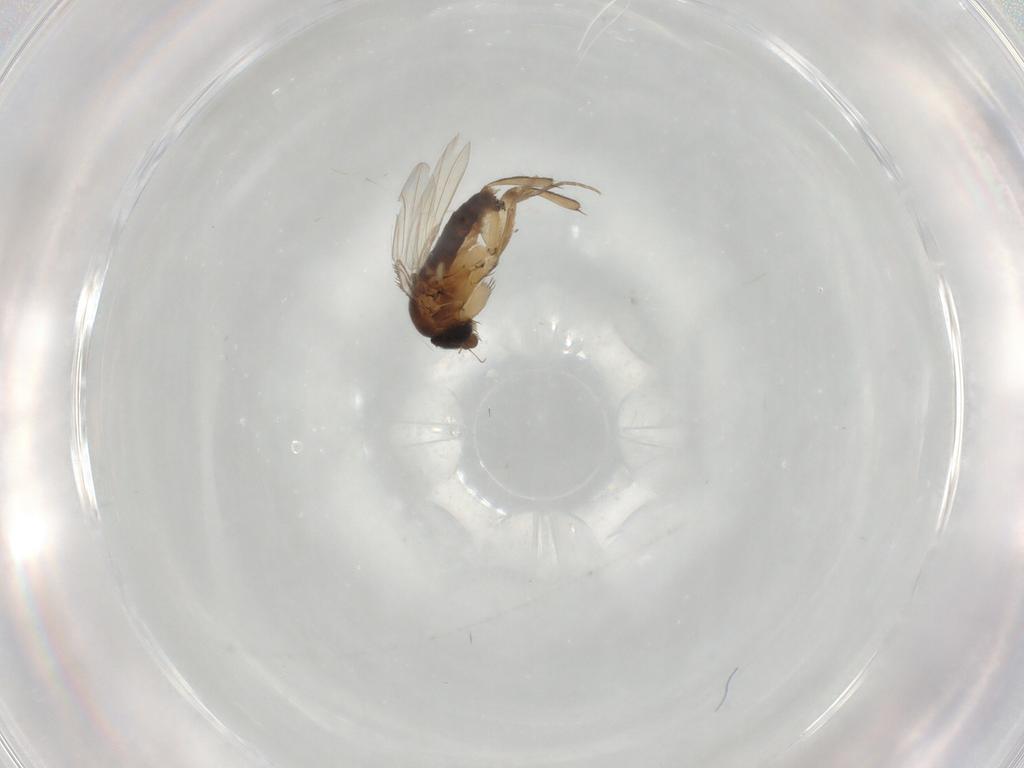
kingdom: Animalia
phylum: Arthropoda
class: Insecta
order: Diptera
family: Phoridae
